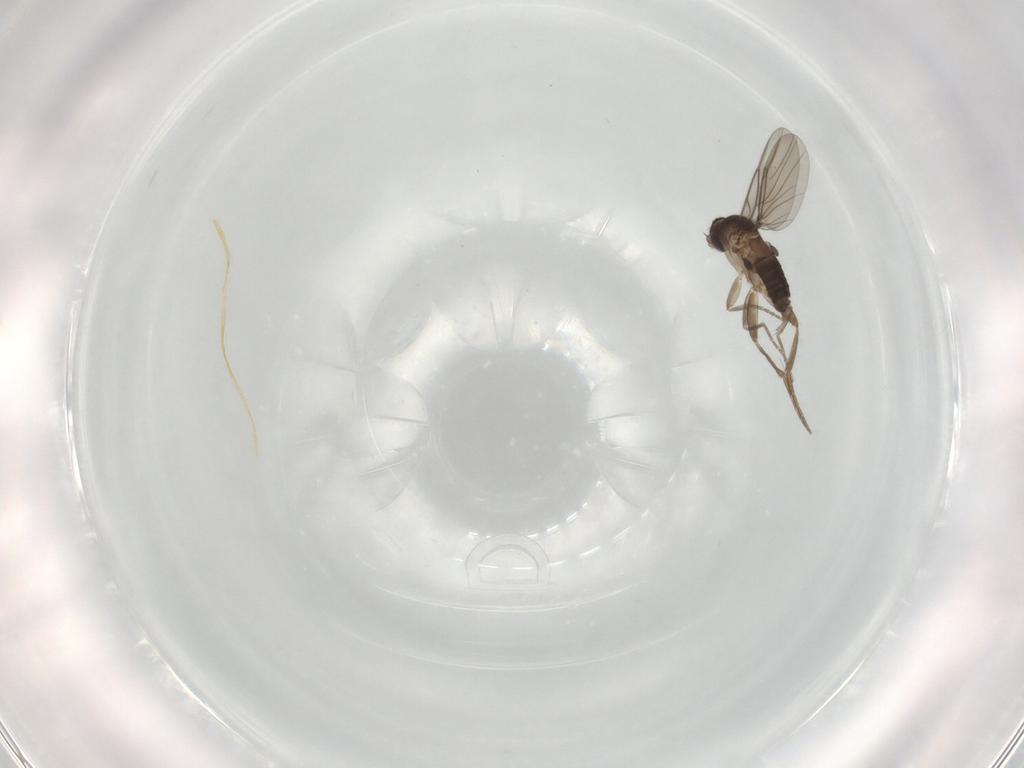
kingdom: Animalia
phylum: Arthropoda
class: Insecta
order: Diptera
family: Phoridae
